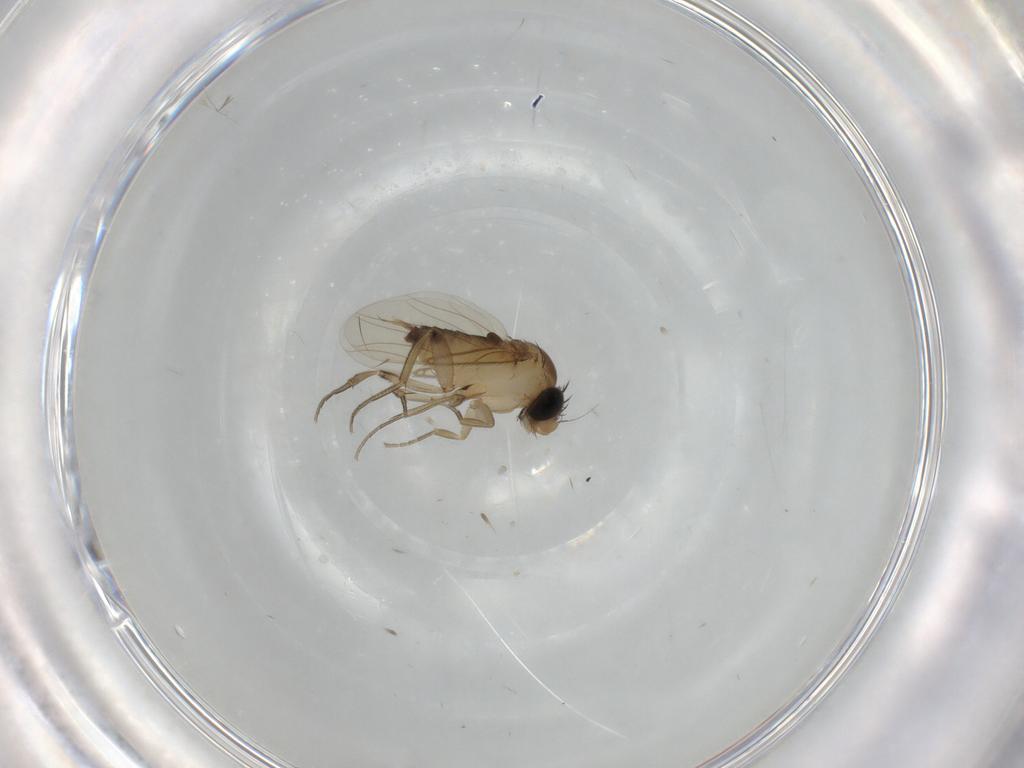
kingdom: Animalia
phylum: Arthropoda
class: Insecta
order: Diptera
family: Phoridae
